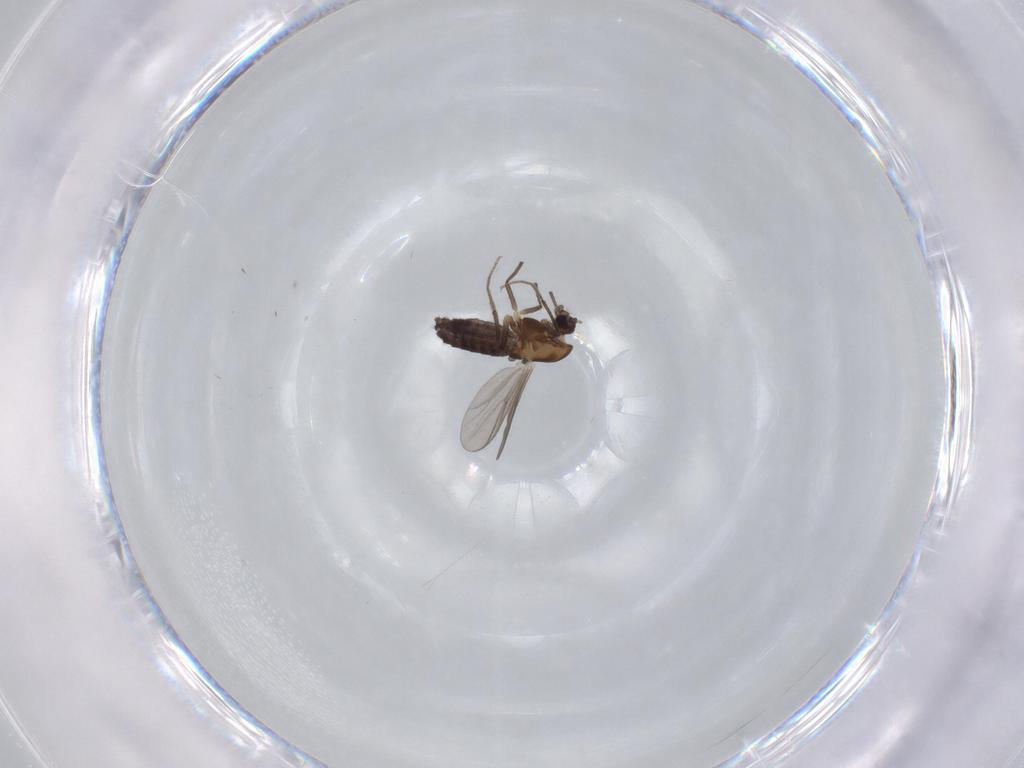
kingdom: Animalia
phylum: Arthropoda
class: Insecta
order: Diptera
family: Chironomidae
